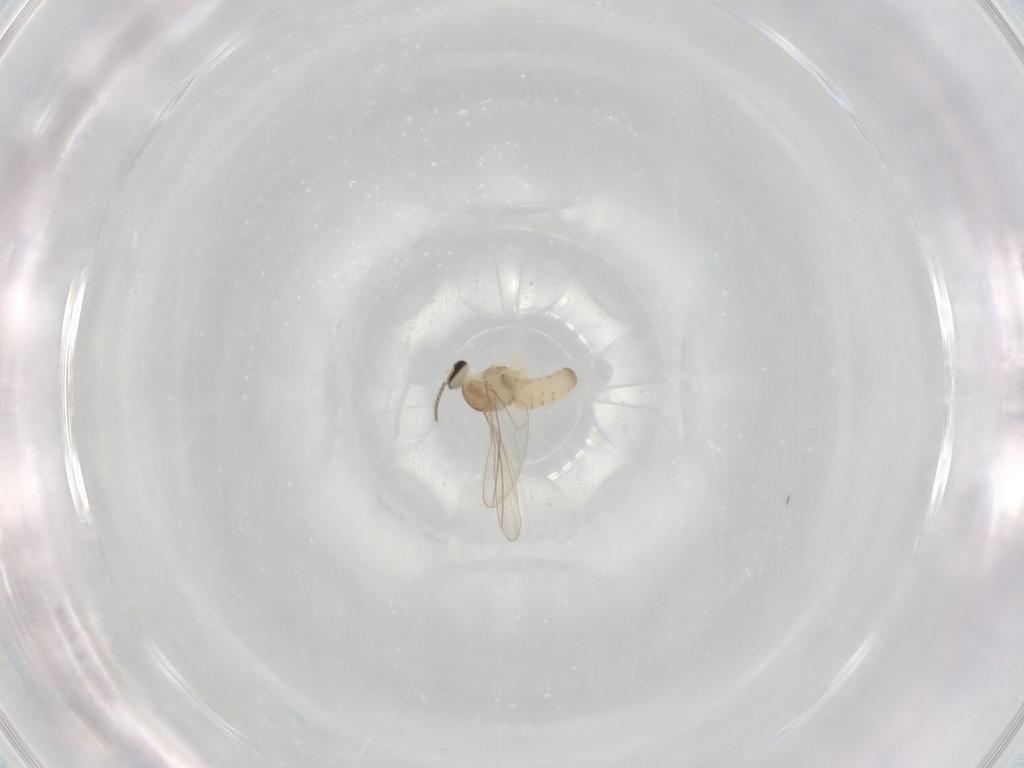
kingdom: Animalia
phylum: Arthropoda
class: Insecta
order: Diptera
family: Cecidomyiidae
